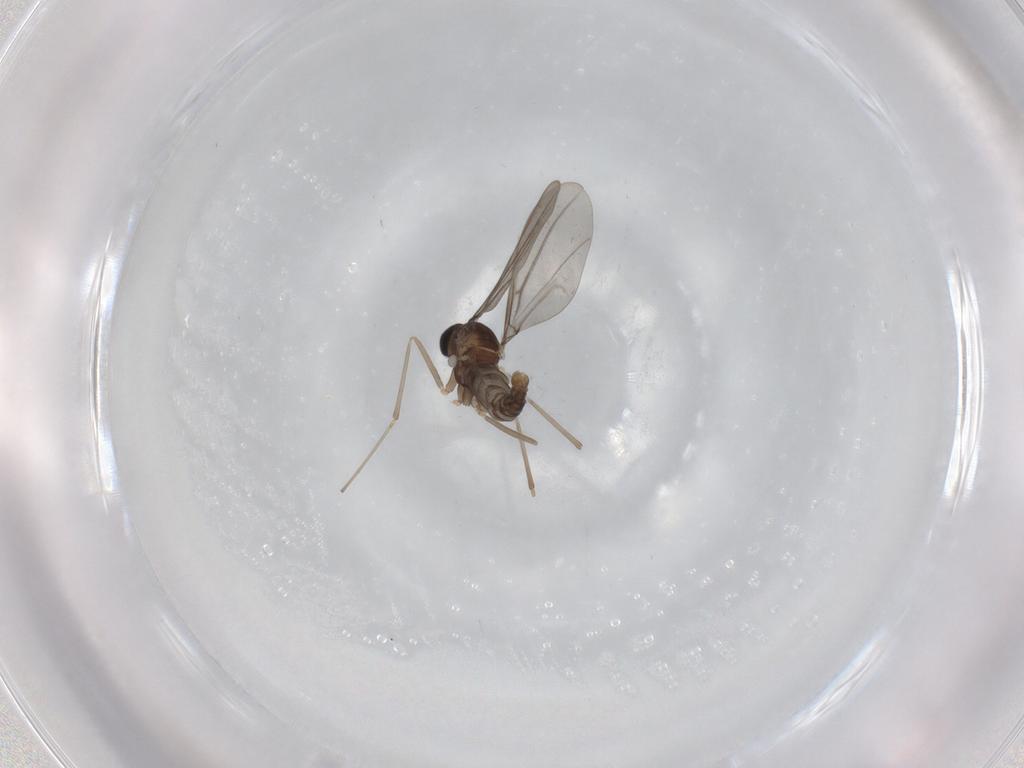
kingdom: Animalia
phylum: Arthropoda
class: Insecta
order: Diptera
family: Cecidomyiidae
